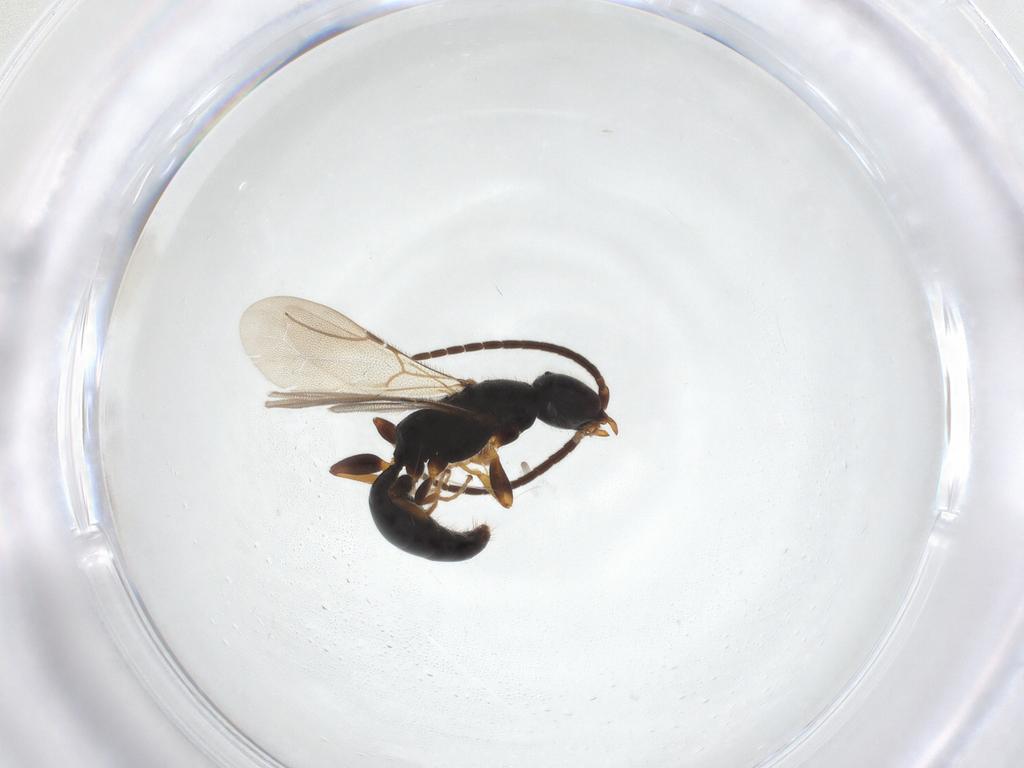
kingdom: Animalia
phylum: Arthropoda
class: Insecta
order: Hymenoptera
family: Bethylidae
